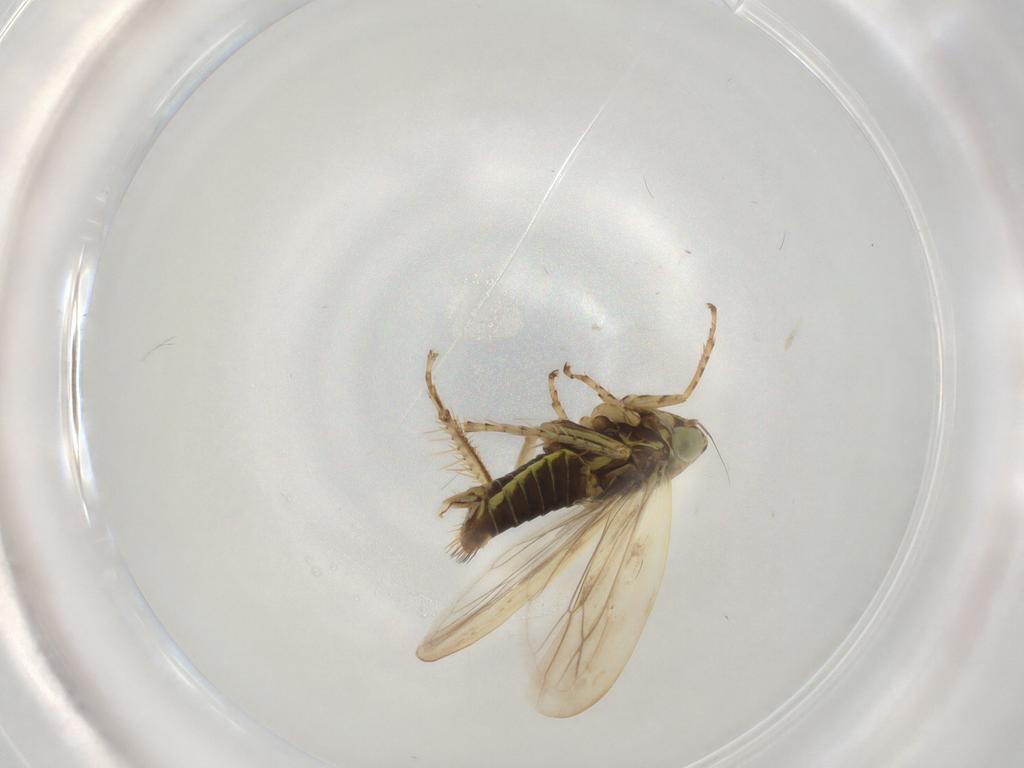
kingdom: Animalia
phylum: Arthropoda
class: Insecta
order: Hemiptera
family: Cicadellidae
